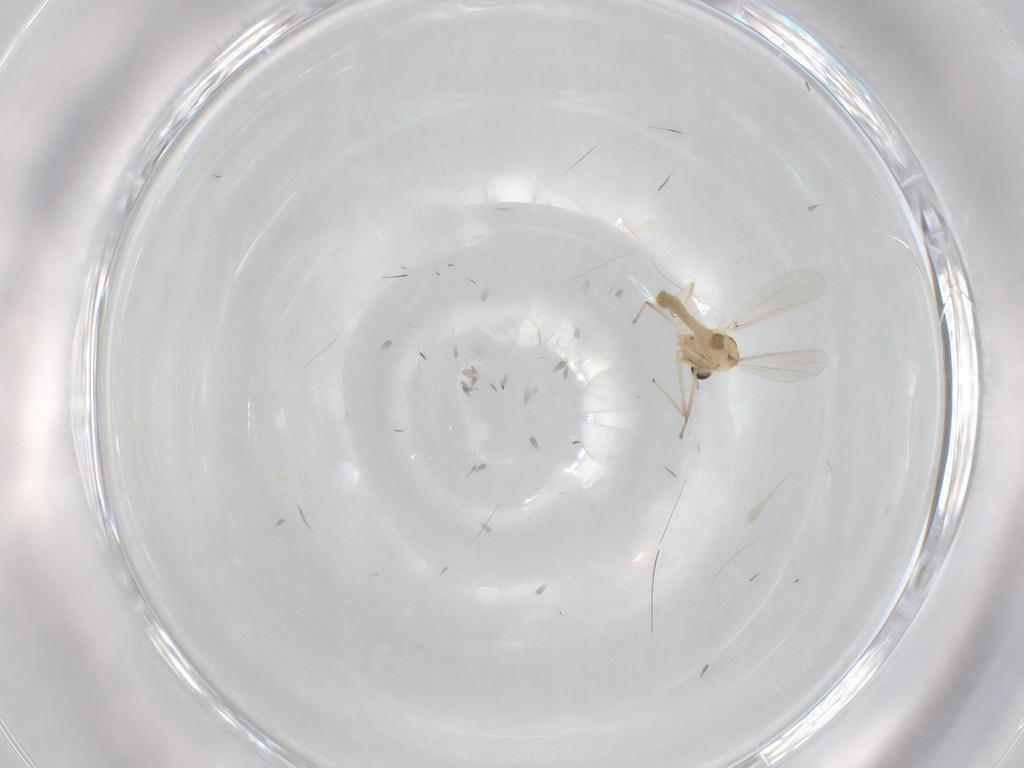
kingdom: Animalia
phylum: Arthropoda
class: Insecta
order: Diptera
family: Chironomidae
